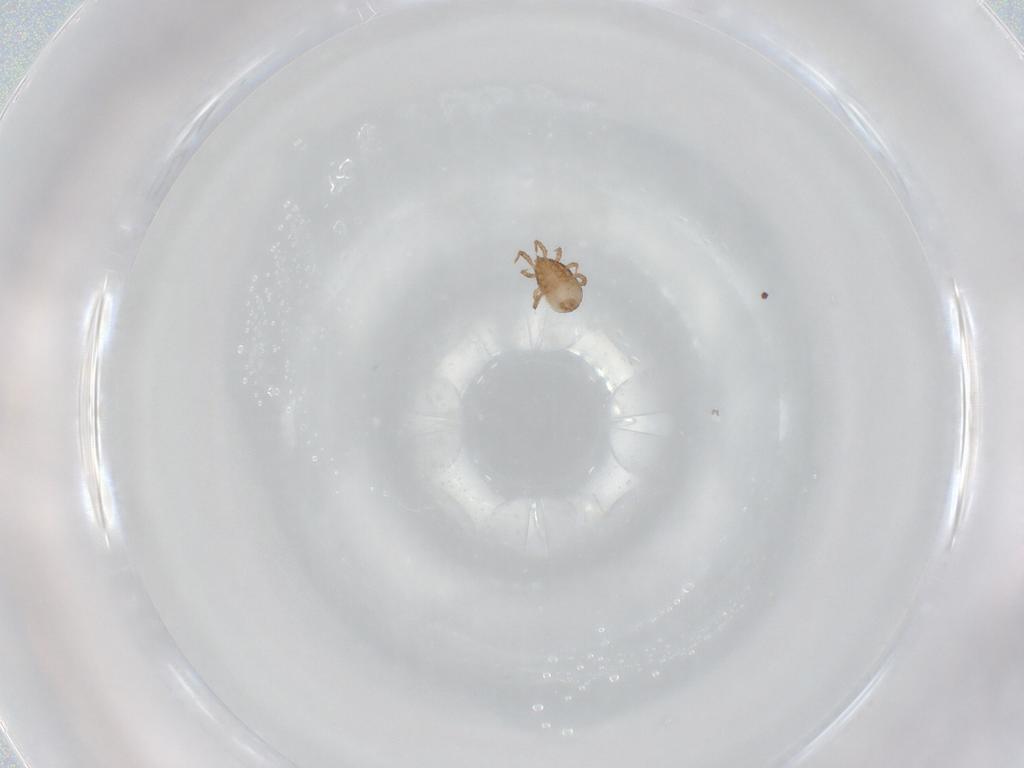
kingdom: Animalia
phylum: Arthropoda
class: Arachnida
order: Sarcoptiformes
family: Eremaeidae
